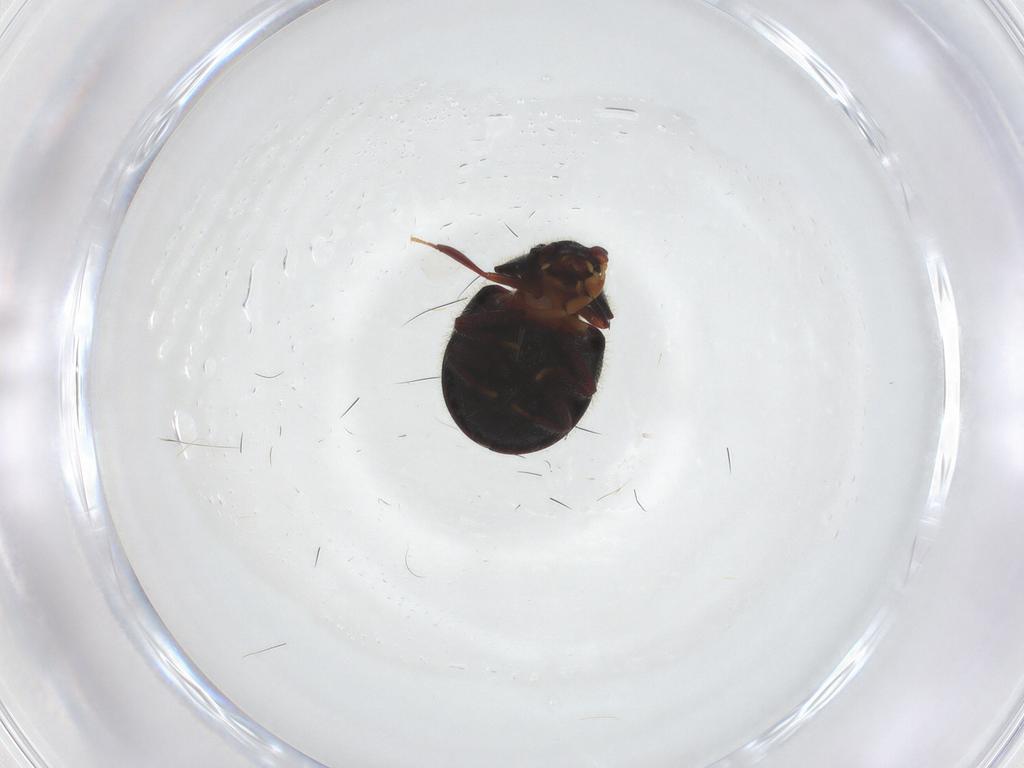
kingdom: Animalia
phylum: Arthropoda
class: Insecta
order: Coleoptera
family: Ptinidae
